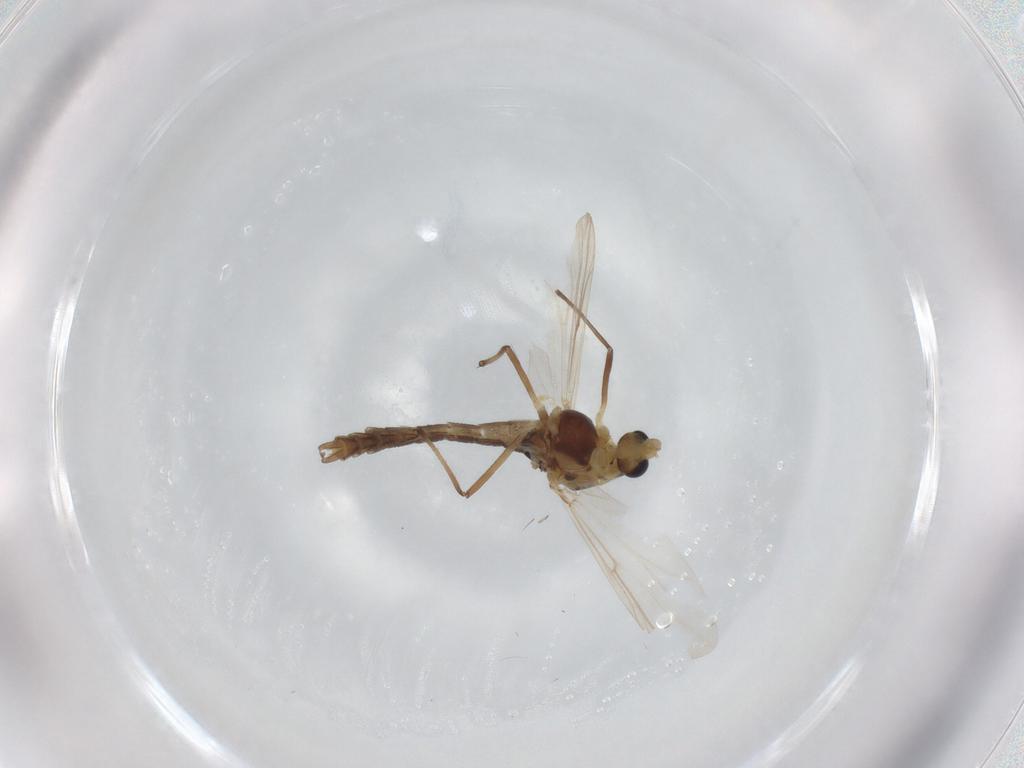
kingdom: Animalia
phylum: Arthropoda
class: Insecta
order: Diptera
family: Chironomidae
